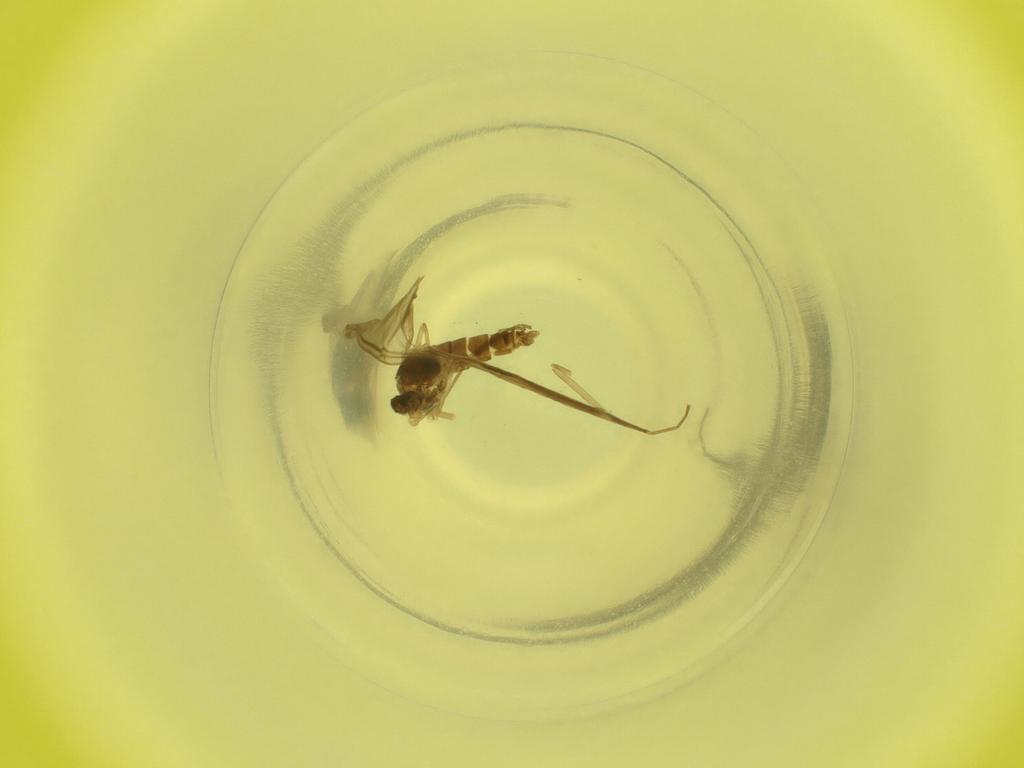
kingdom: Animalia
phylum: Arthropoda
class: Insecta
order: Diptera
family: Cecidomyiidae
